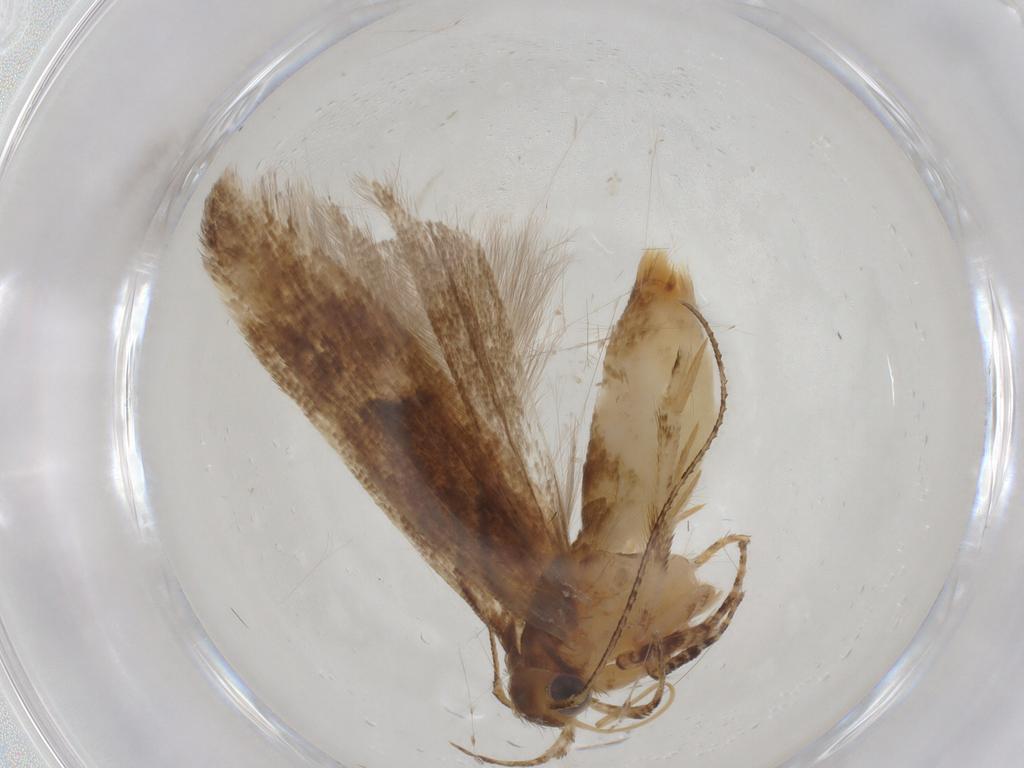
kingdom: Animalia
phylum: Arthropoda
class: Insecta
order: Lepidoptera
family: Gelechiidae
